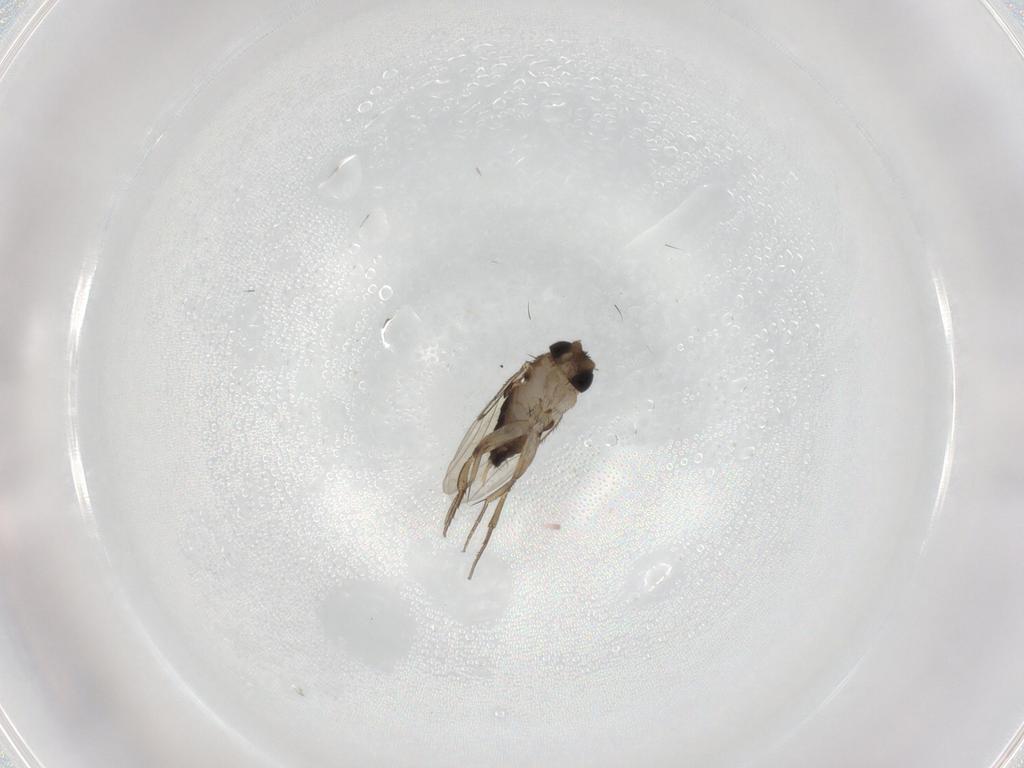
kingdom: Animalia
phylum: Arthropoda
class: Insecta
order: Diptera
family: Phoridae
